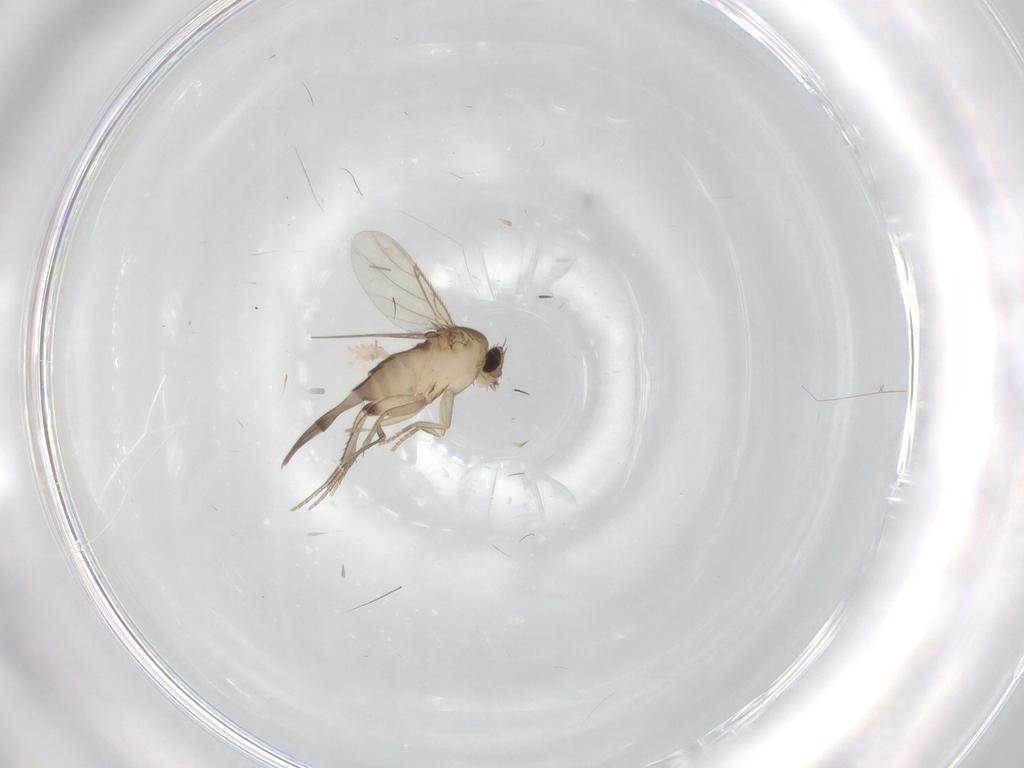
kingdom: Animalia
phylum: Arthropoda
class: Insecta
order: Diptera
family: Phoridae
